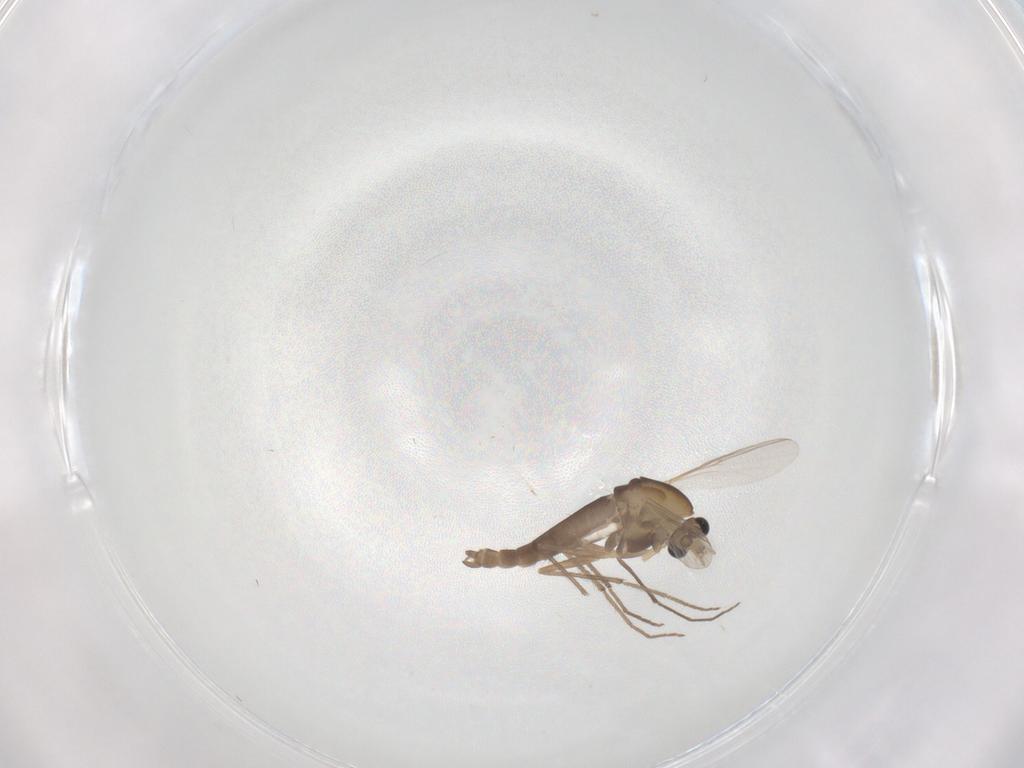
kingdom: Animalia
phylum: Arthropoda
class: Insecta
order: Diptera
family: Chironomidae
